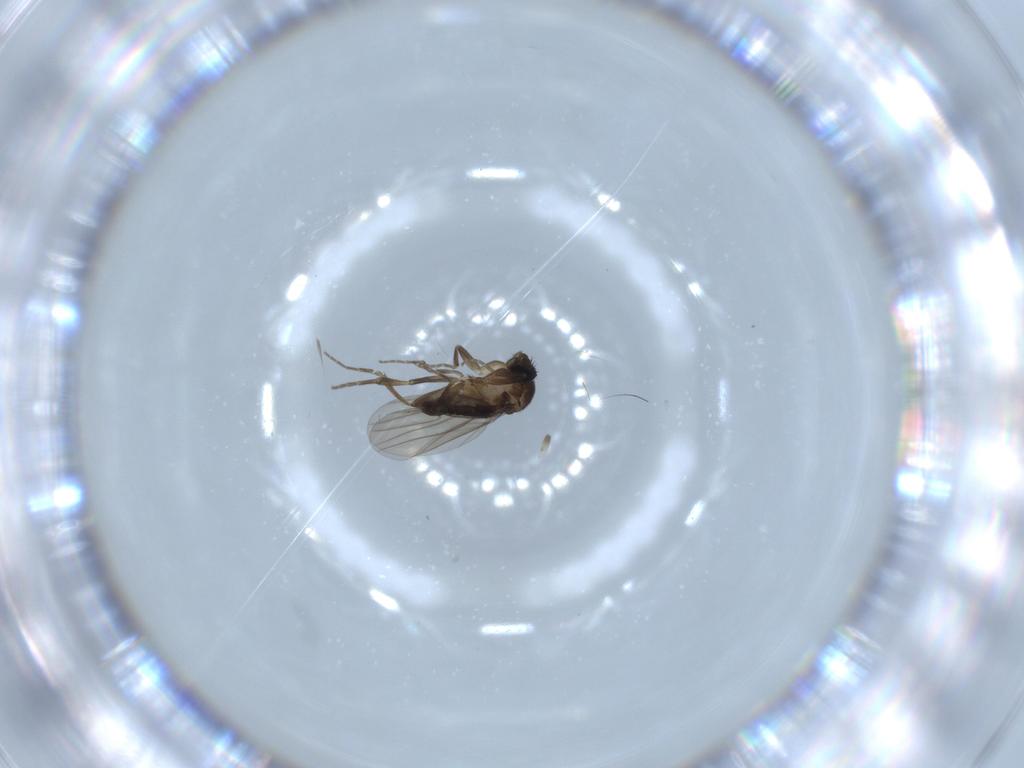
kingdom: Animalia
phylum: Arthropoda
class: Insecta
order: Diptera
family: Phoridae
